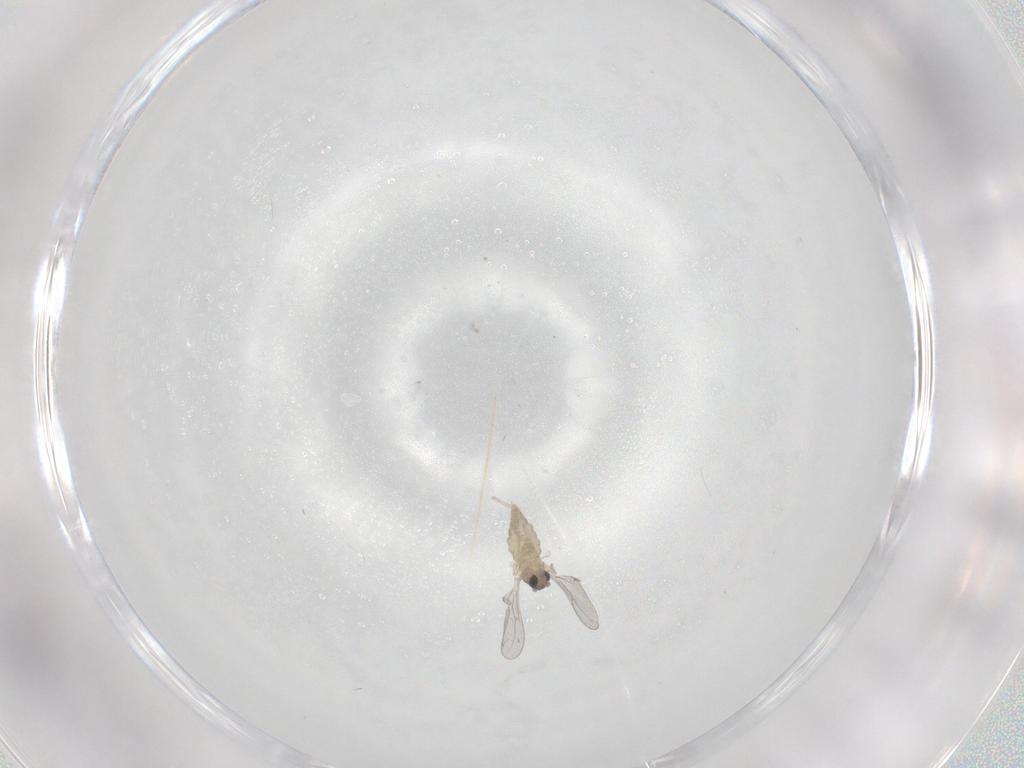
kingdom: Animalia
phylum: Arthropoda
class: Insecta
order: Diptera
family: Cecidomyiidae
